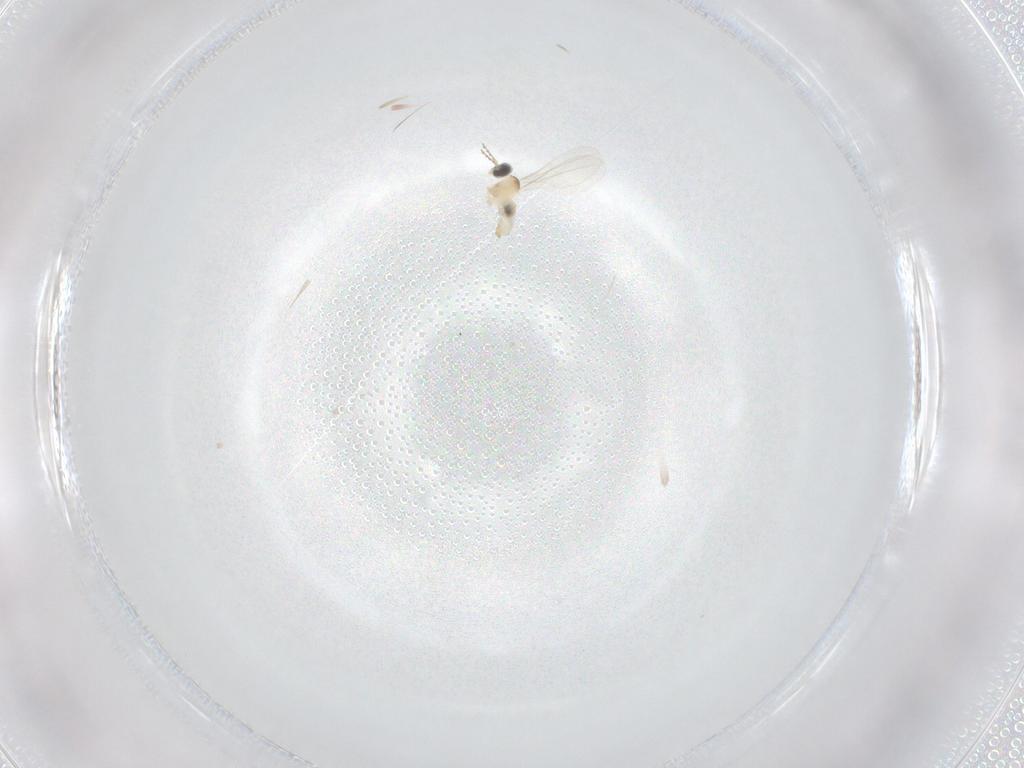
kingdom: Animalia
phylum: Arthropoda
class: Insecta
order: Diptera
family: Cecidomyiidae
